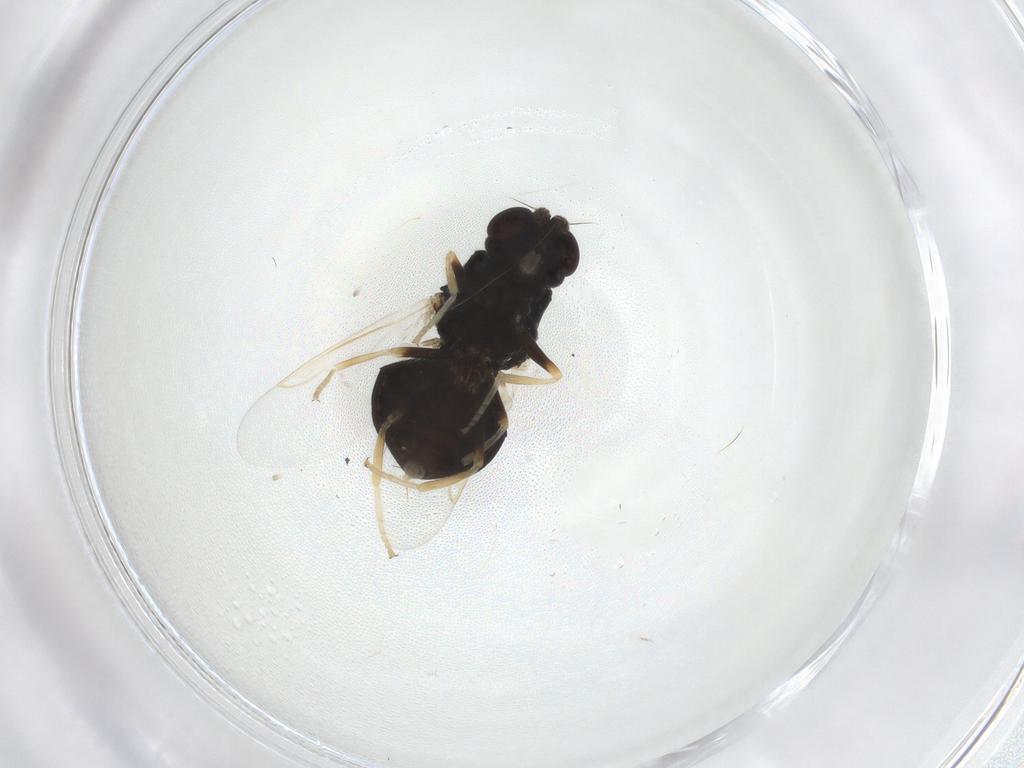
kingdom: Animalia
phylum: Arthropoda
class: Insecta
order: Diptera
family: Stratiomyidae
